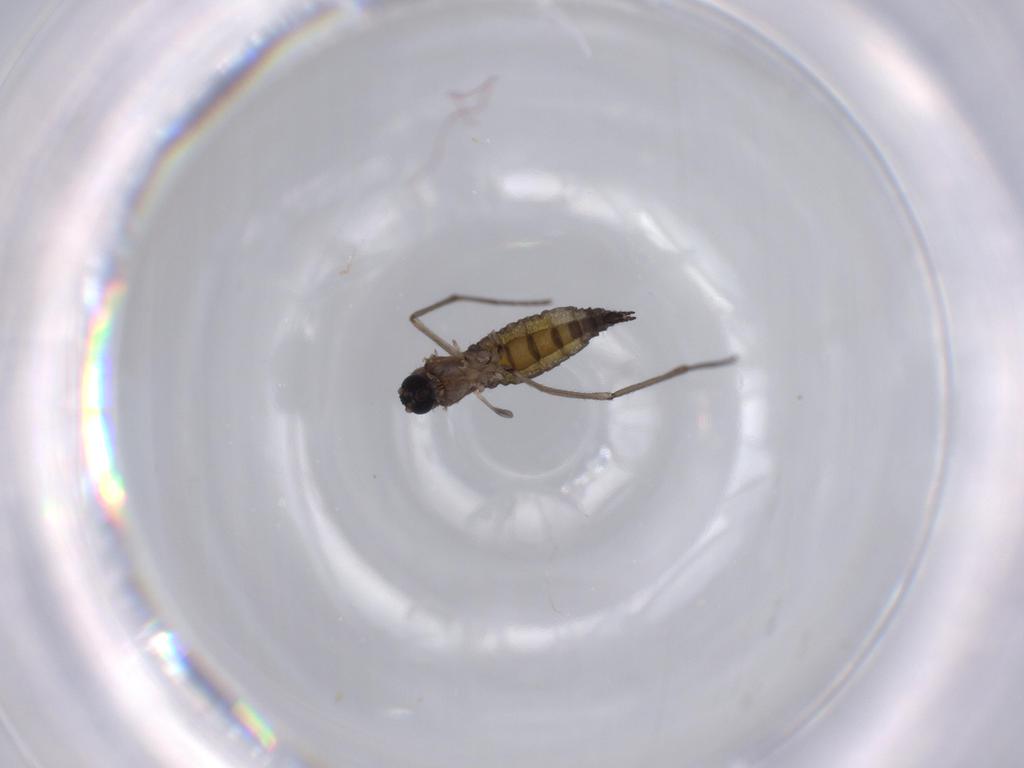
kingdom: Animalia
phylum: Arthropoda
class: Insecta
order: Diptera
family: Sciaridae
